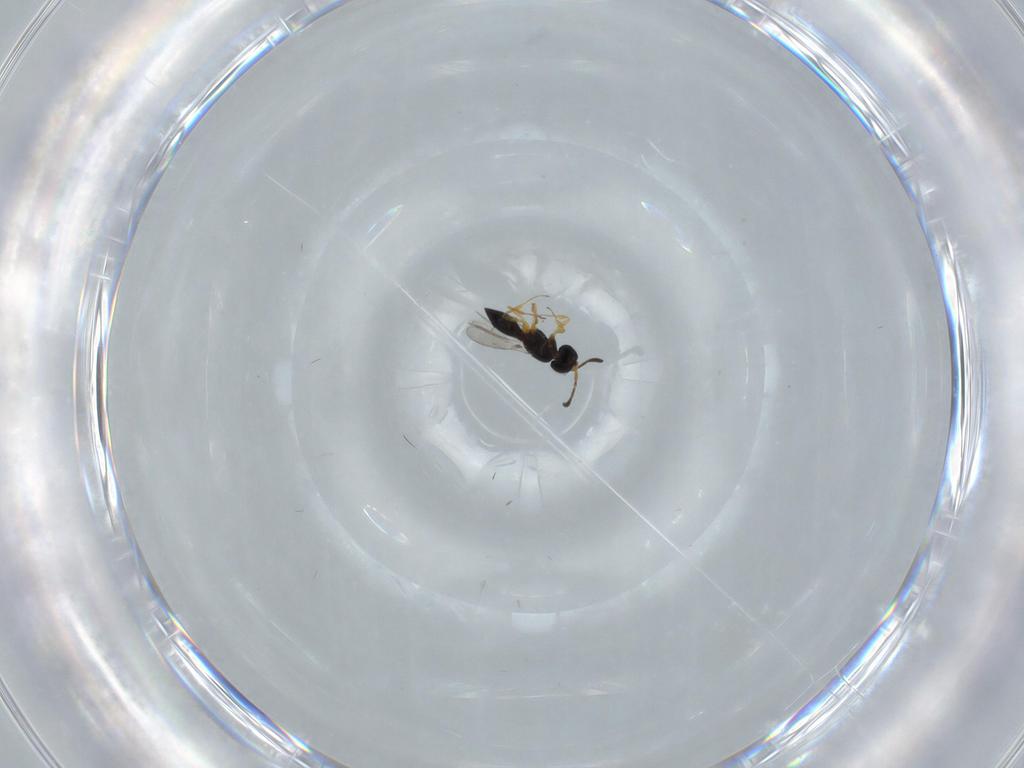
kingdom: Animalia
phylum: Arthropoda
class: Insecta
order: Hymenoptera
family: Scelionidae
